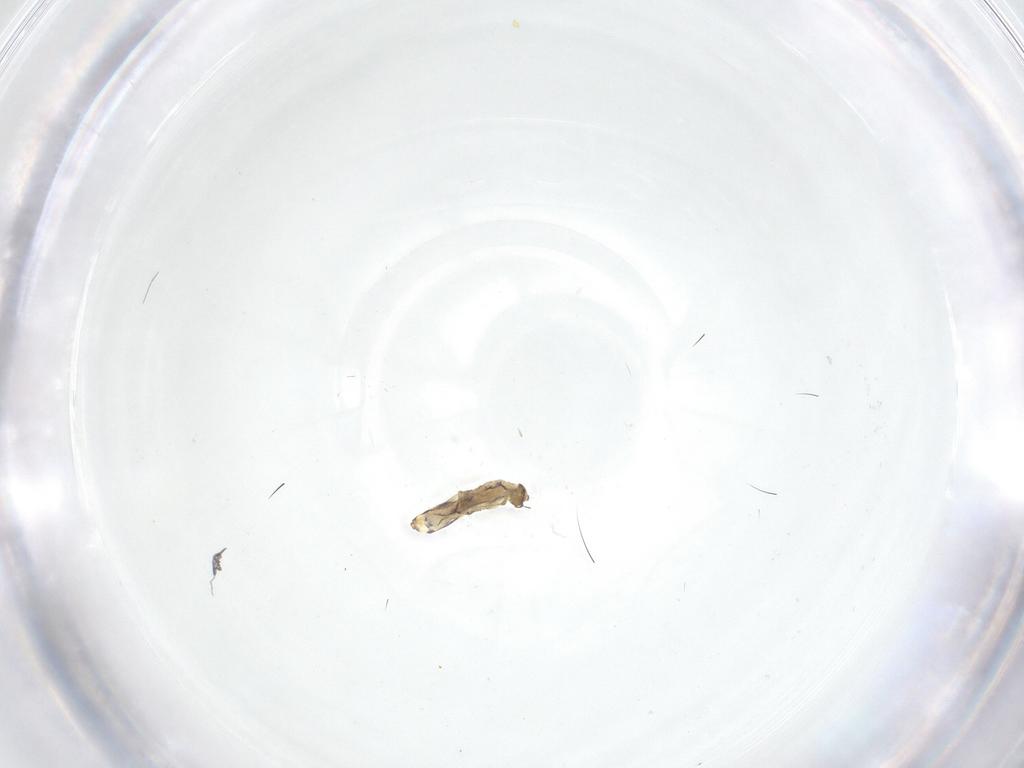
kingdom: Animalia
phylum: Arthropoda
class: Collembola
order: Entomobryomorpha
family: Entomobryidae
